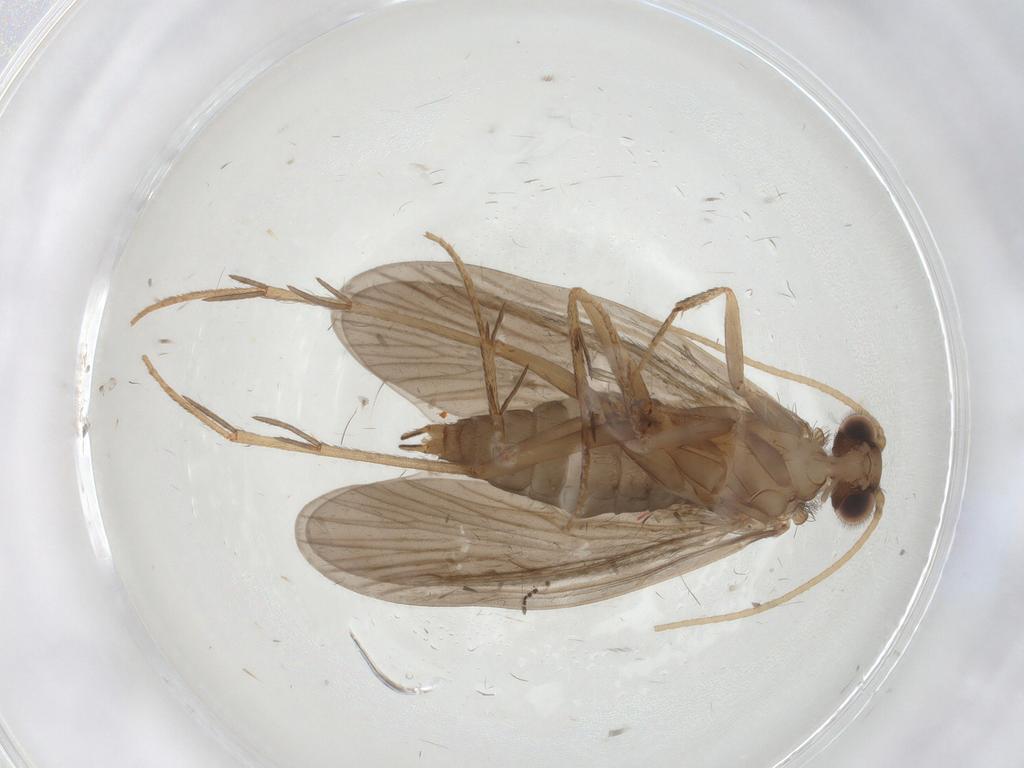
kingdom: Animalia
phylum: Arthropoda
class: Insecta
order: Trichoptera
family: Philopotamidae
